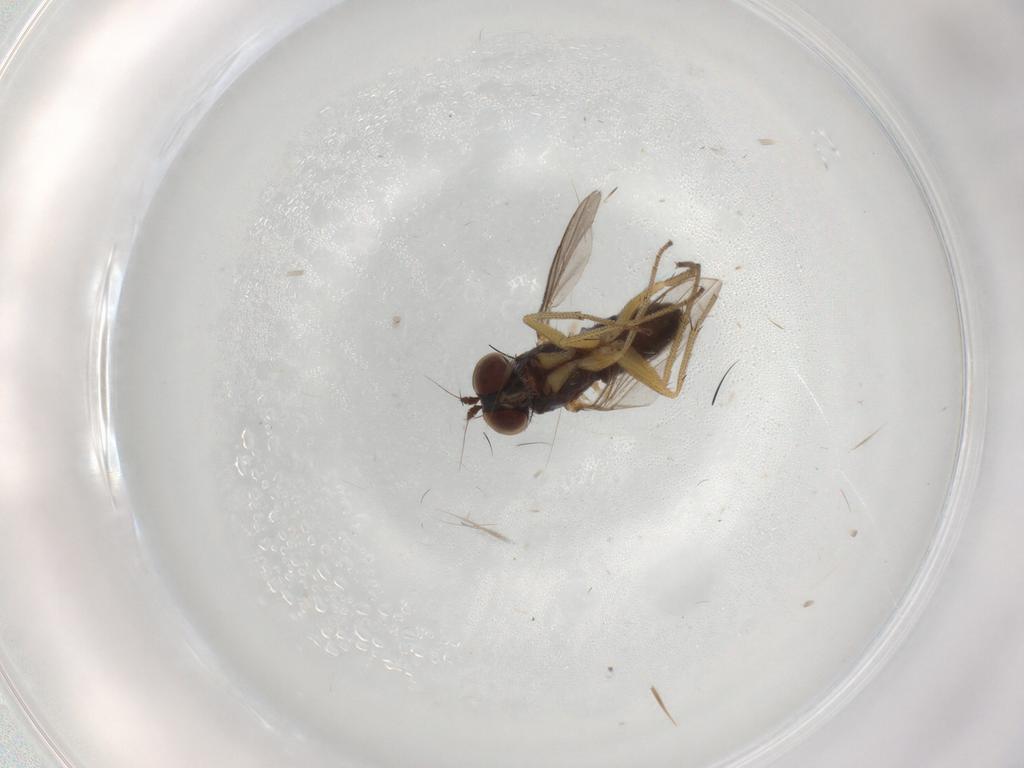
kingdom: Animalia
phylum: Arthropoda
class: Insecta
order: Diptera
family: Dolichopodidae
